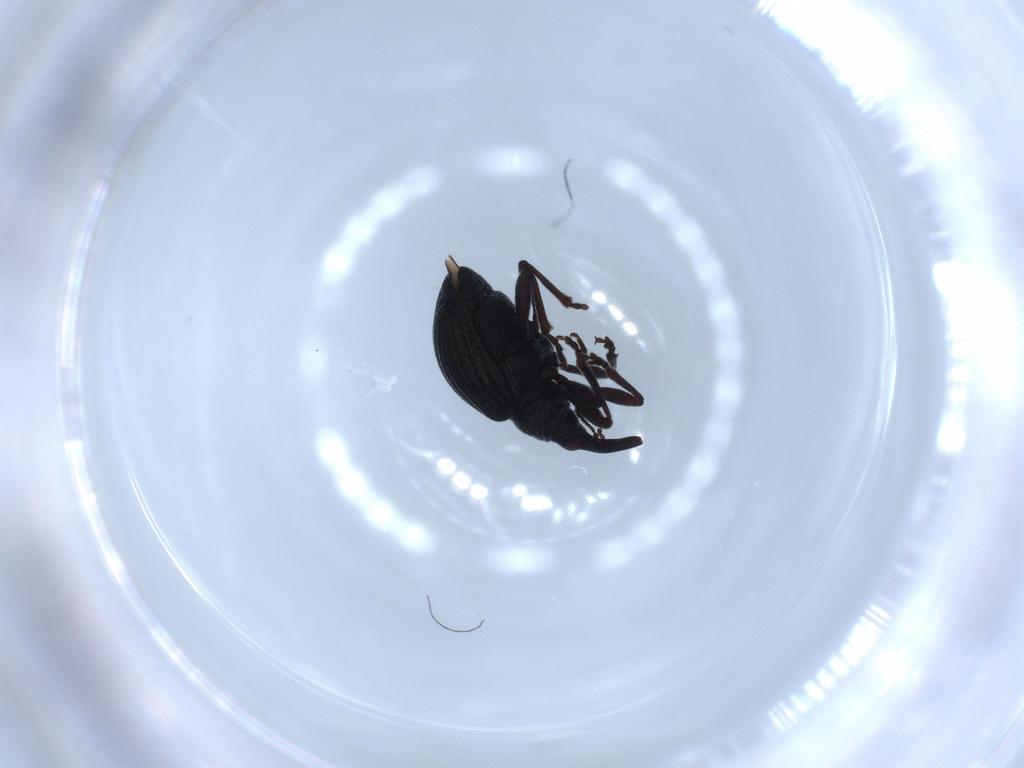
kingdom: Animalia
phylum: Arthropoda
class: Insecta
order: Coleoptera
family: Brentidae
